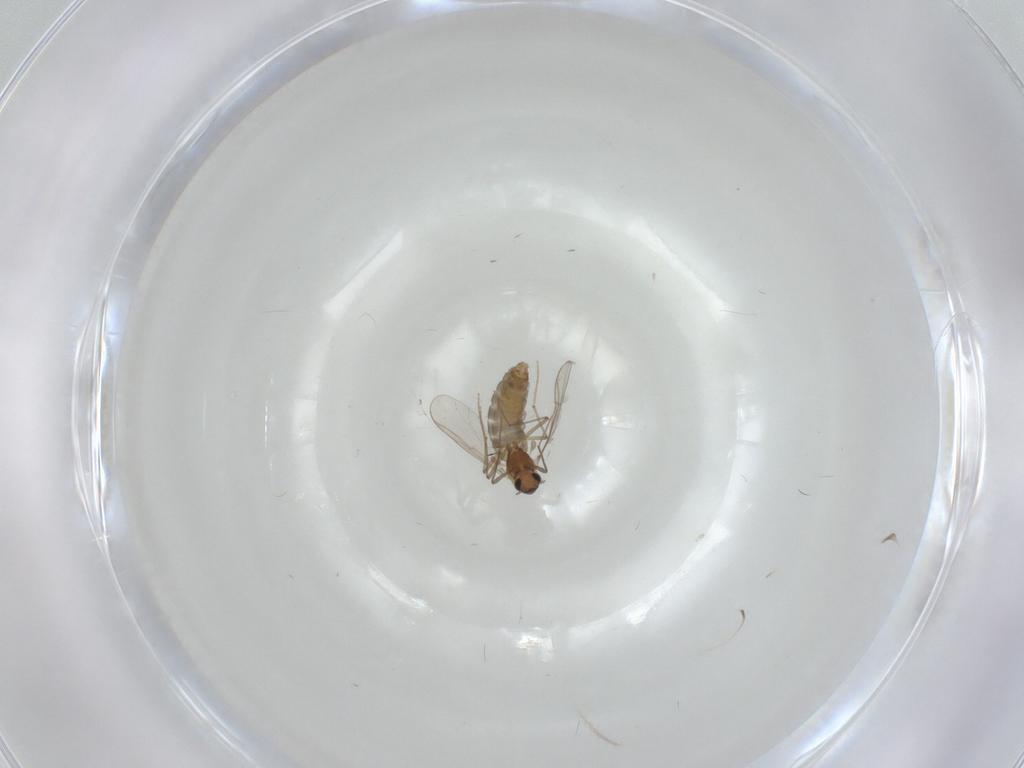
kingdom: Animalia
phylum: Arthropoda
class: Insecta
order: Diptera
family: Chironomidae
